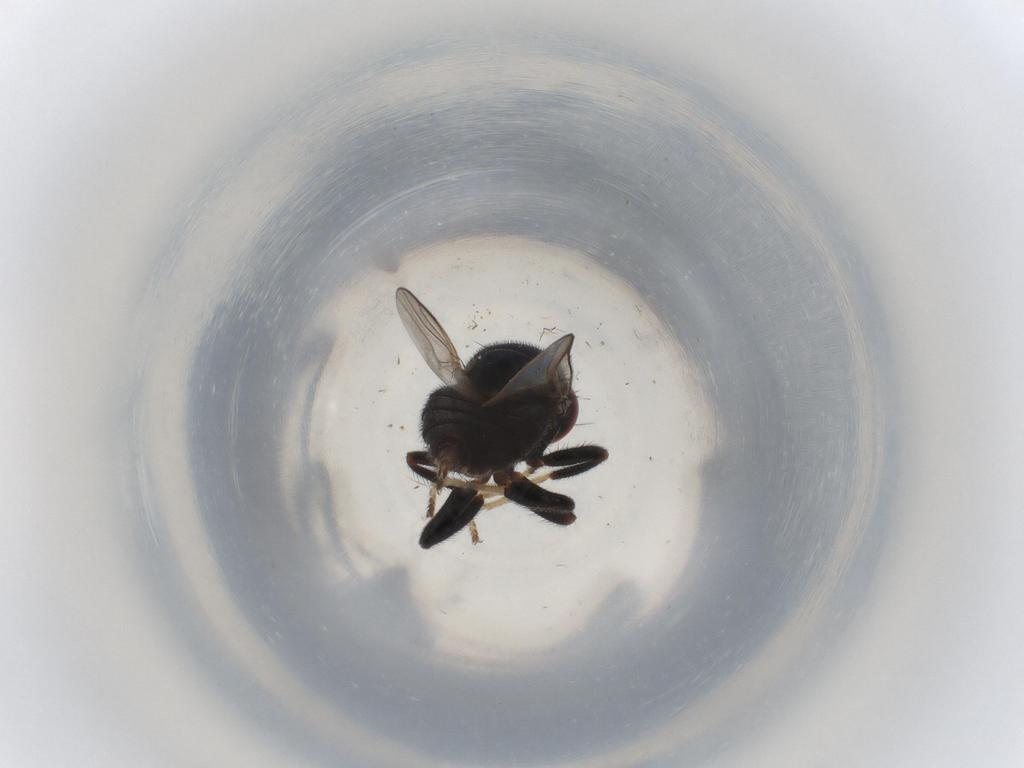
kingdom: Animalia
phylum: Arthropoda
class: Insecta
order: Diptera
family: Chloropidae
